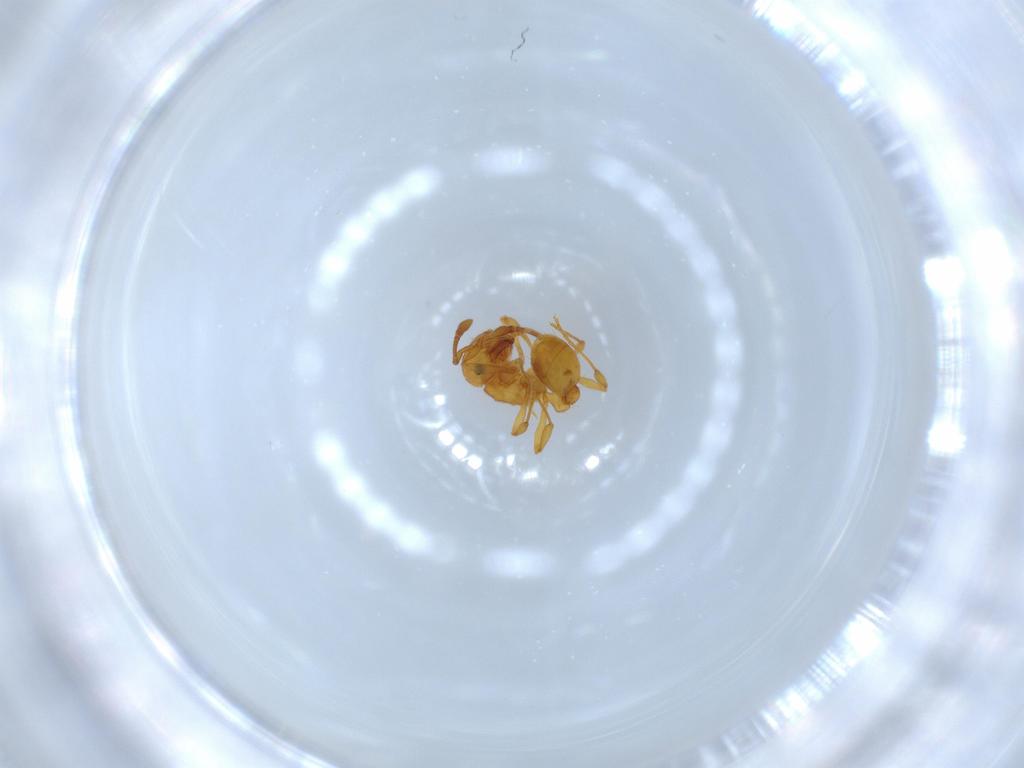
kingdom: Animalia
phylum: Arthropoda
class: Insecta
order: Hymenoptera
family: Formicidae
